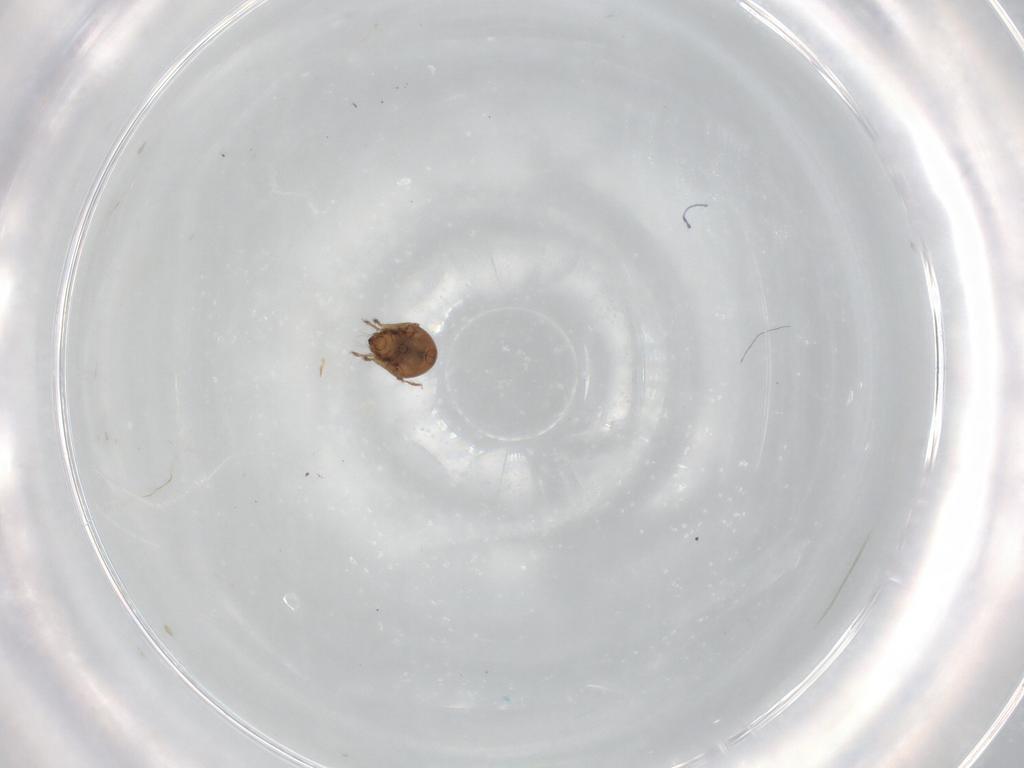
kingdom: Animalia
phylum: Arthropoda
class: Arachnida
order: Sarcoptiformes
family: Humerobatidae
